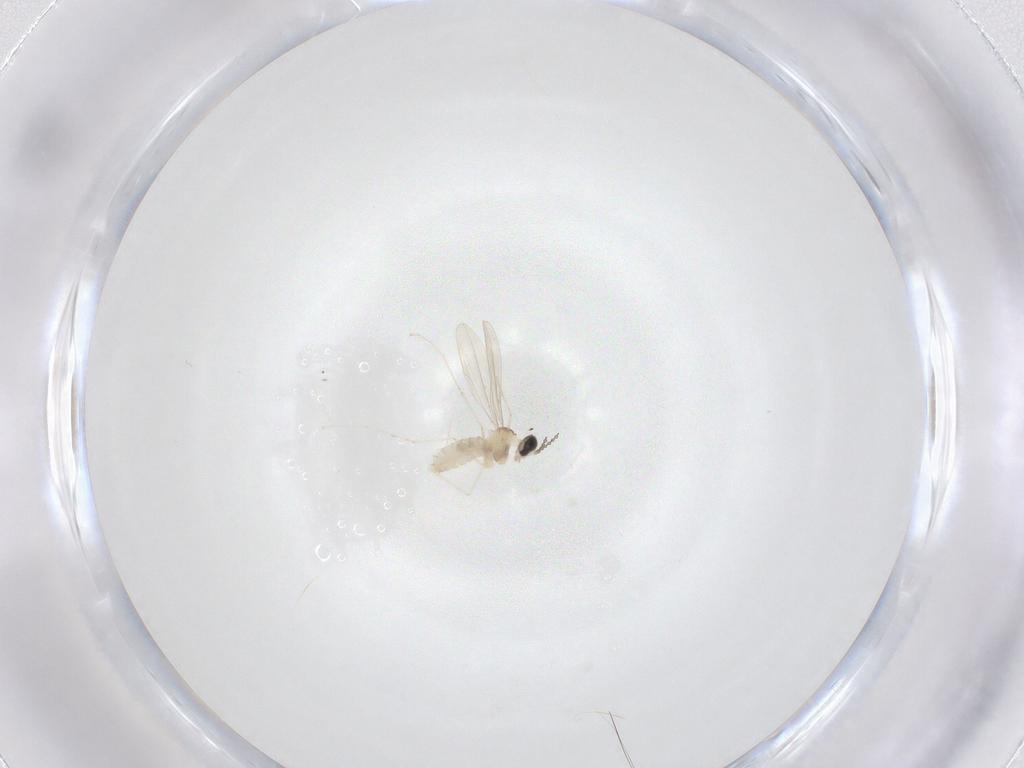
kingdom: Animalia
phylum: Arthropoda
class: Insecta
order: Diptera
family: Cecidomyiidae
